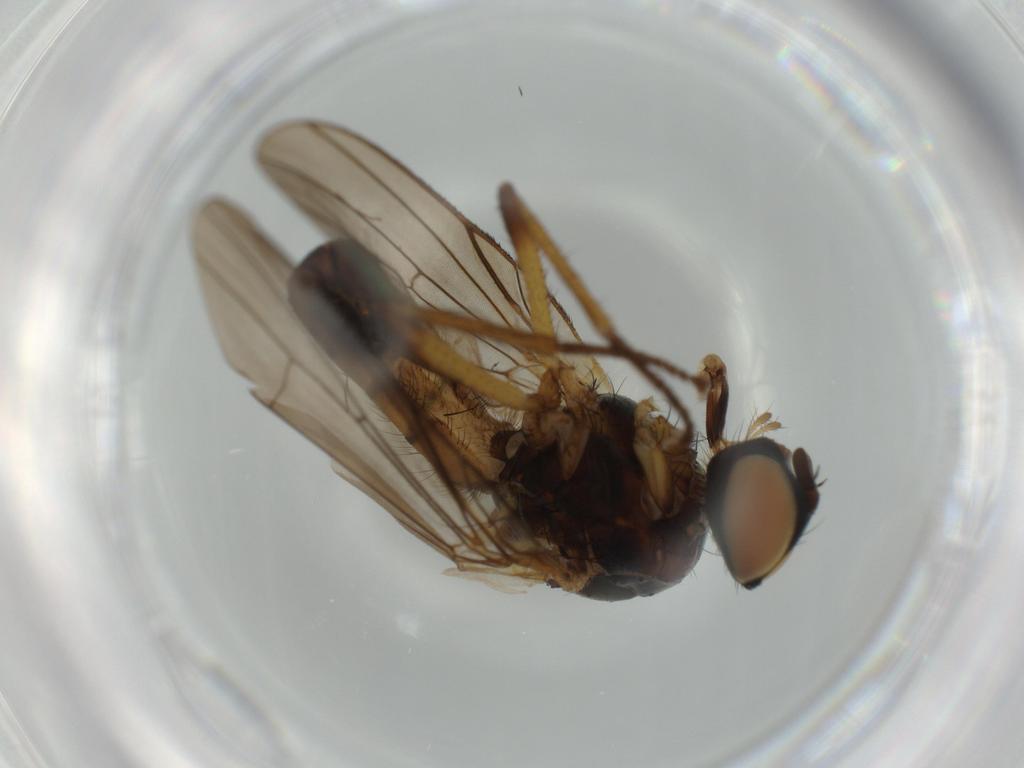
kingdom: Animalia
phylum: Arthropoda
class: Insecta
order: Diptera
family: Anthomyiidae
